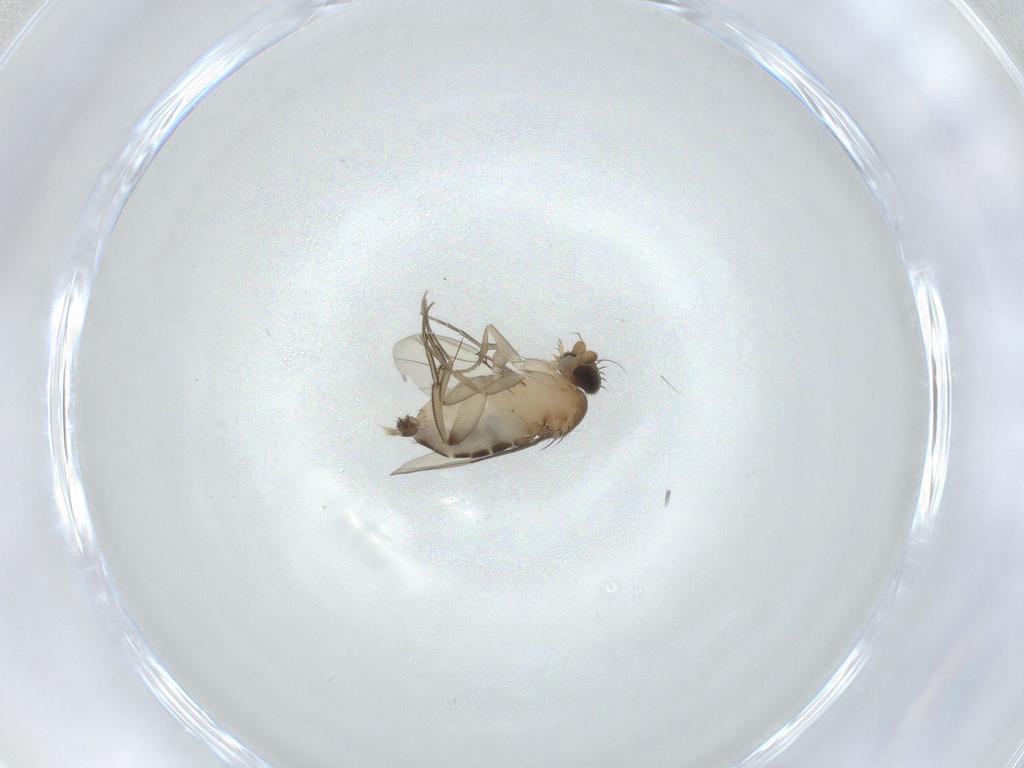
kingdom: Animalia
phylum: Arthropoda
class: Insecta
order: Diptera
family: Phoridae
